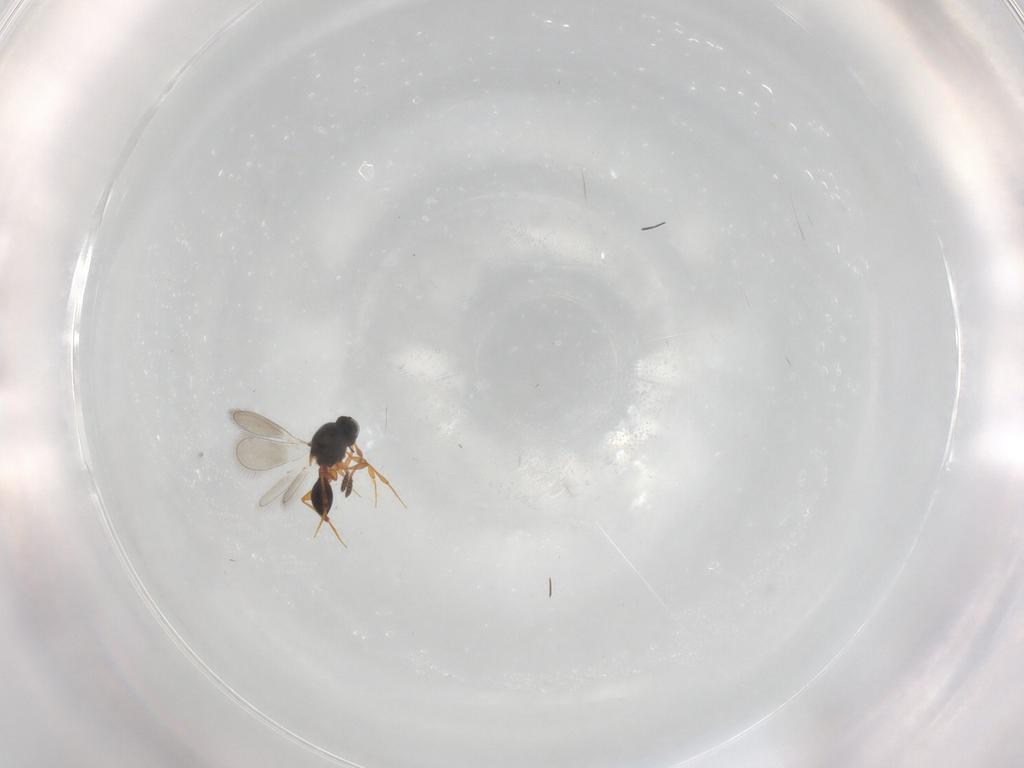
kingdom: Animalia
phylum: Arthropoda
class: Insecta
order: Hymenoptera
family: Platygastridae
